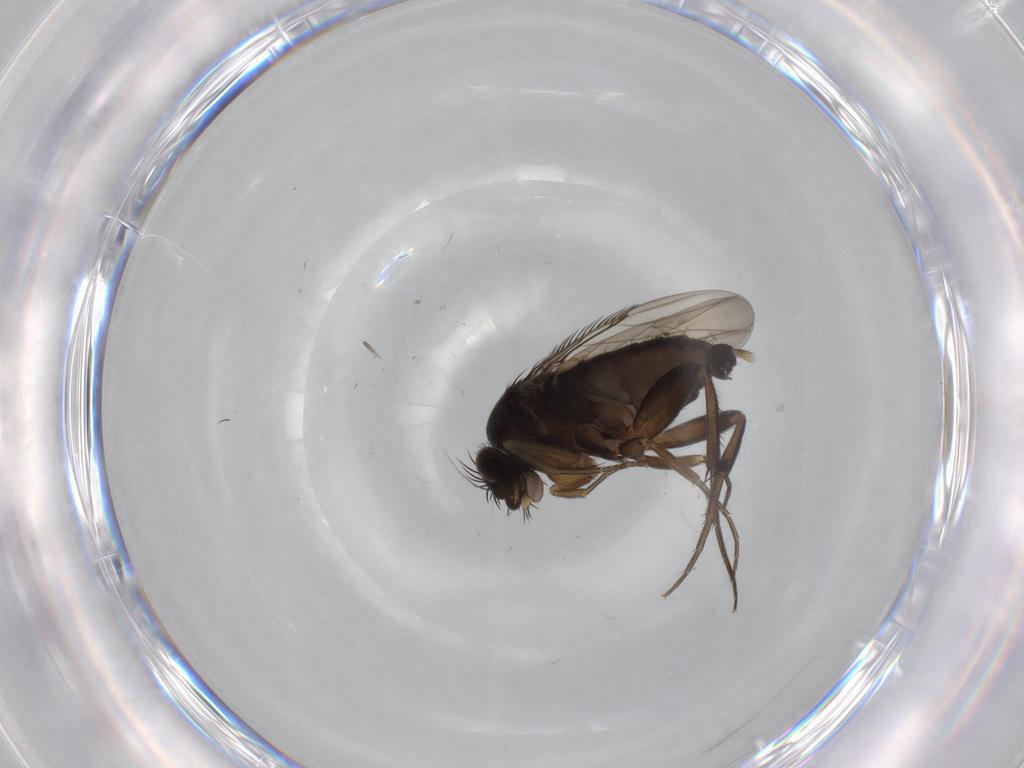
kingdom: Animalia
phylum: Arthropoda
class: Insecta
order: Diptera
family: Phoridae
